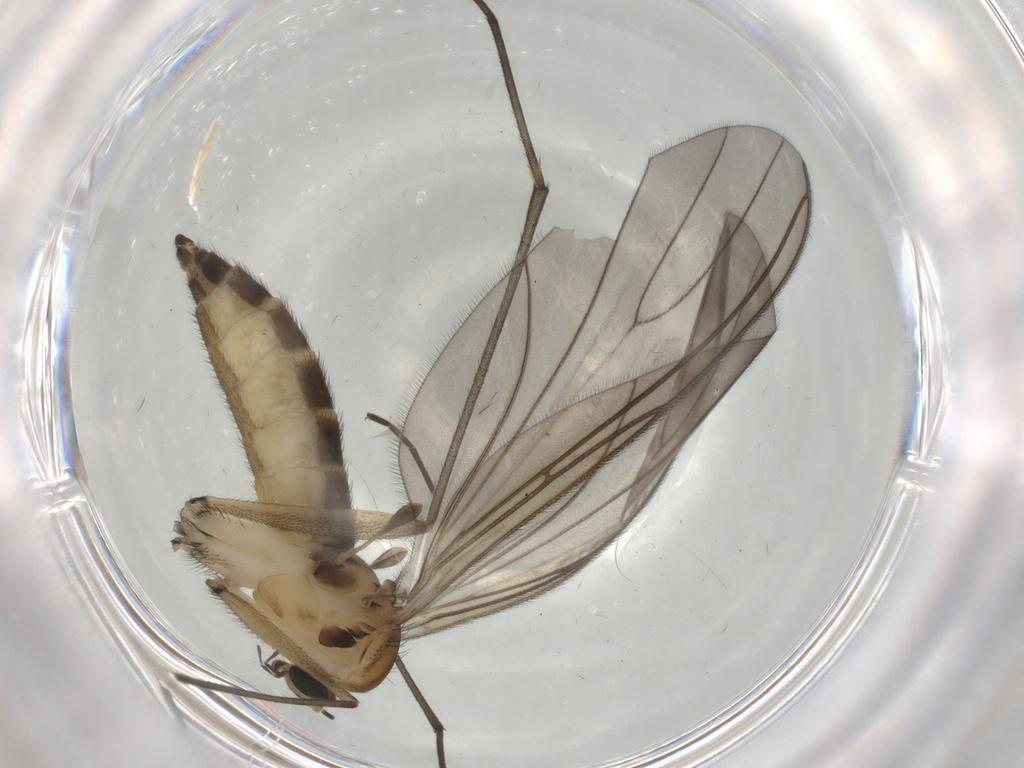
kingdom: Animalia
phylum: Arthropoda
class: Insecta
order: Diptera
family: Sciaridae
